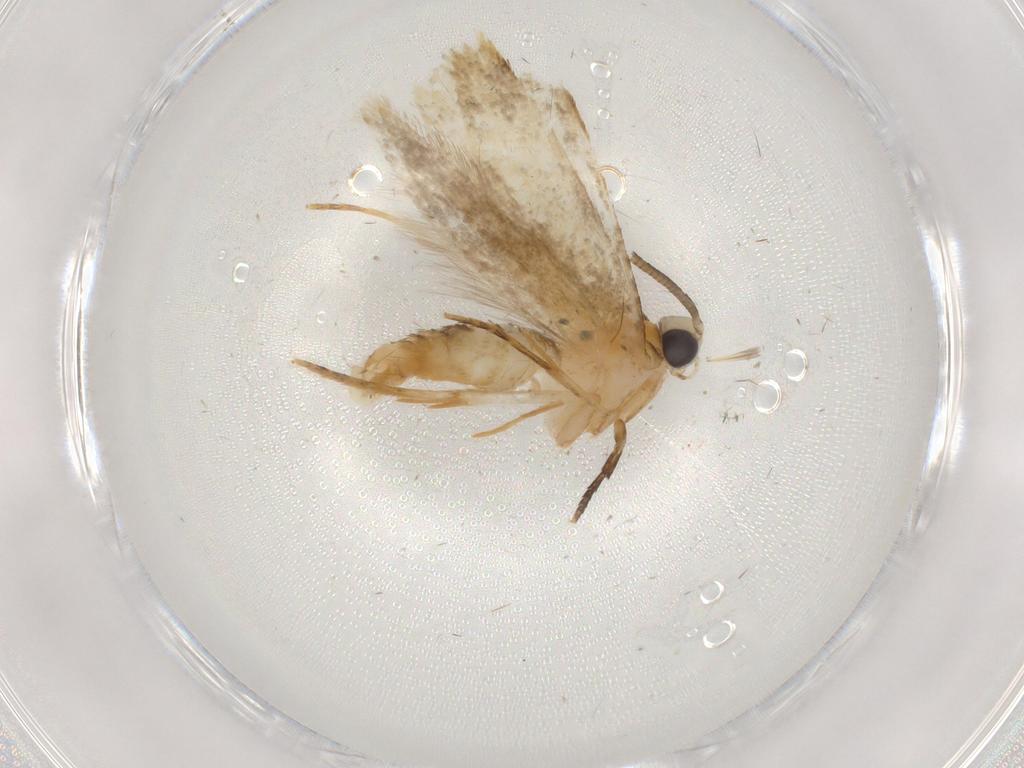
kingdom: Animalia
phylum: Arthropoda
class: Insecta
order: Lepidoptera
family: Tineidae
